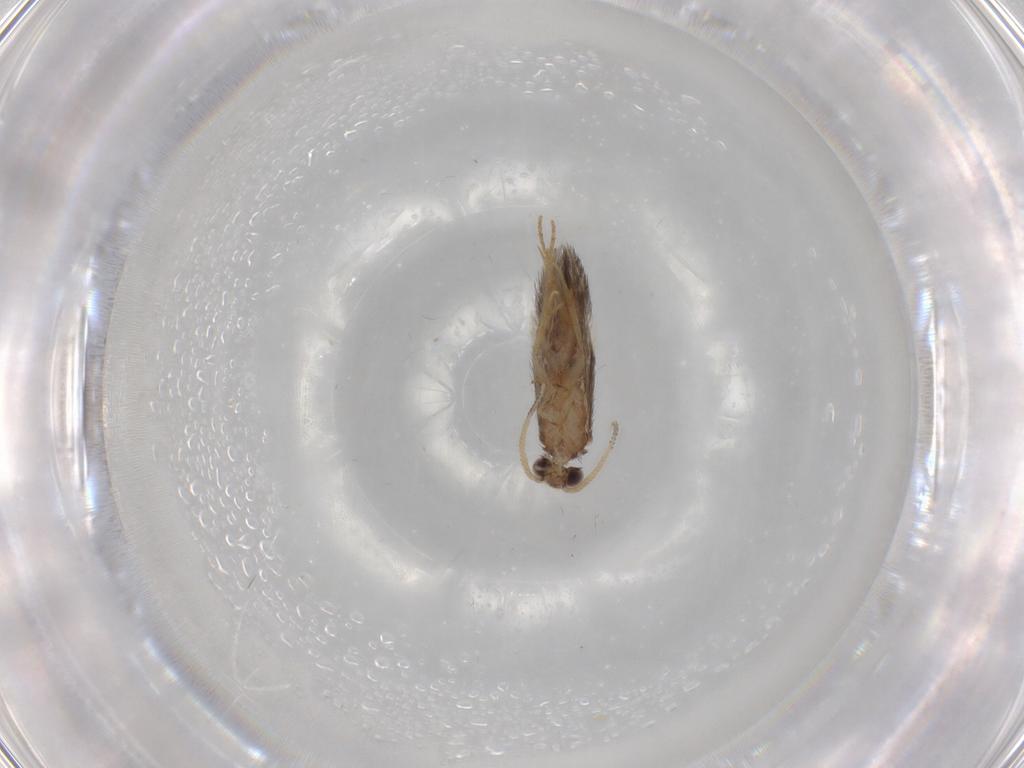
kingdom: Animalia
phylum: Arthropoda
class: Insecta
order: Trichoptera
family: Hydroptilidae
